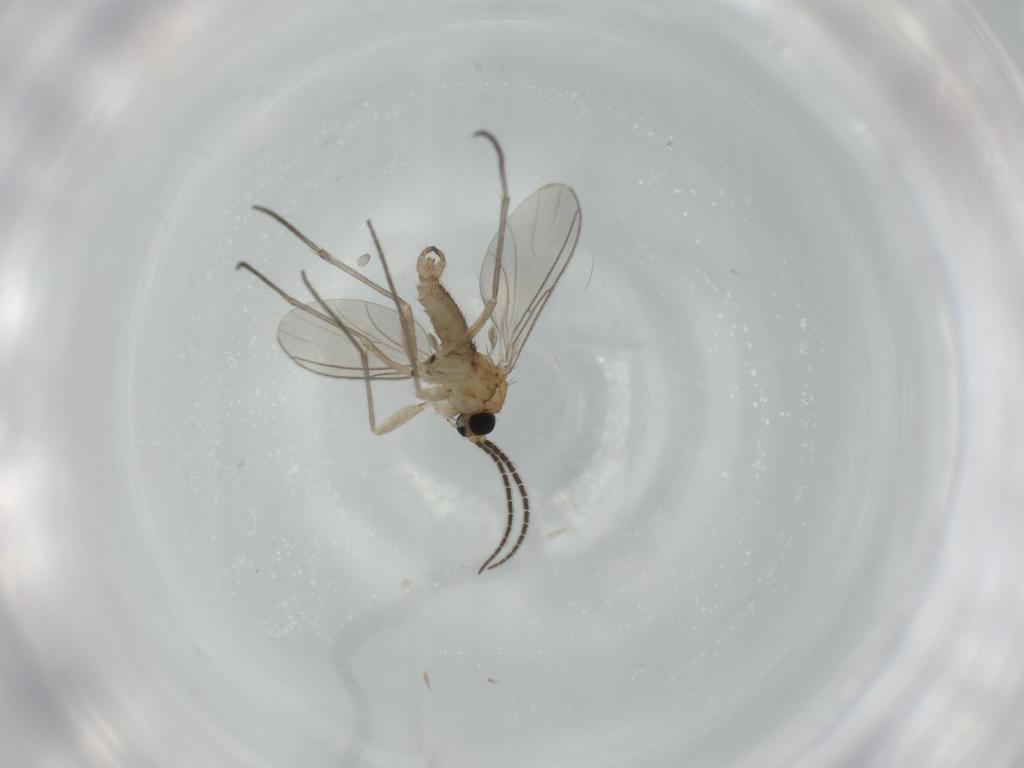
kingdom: Animalia
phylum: Arthropoda
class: Insecta
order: Diptera
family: Sciaridae
